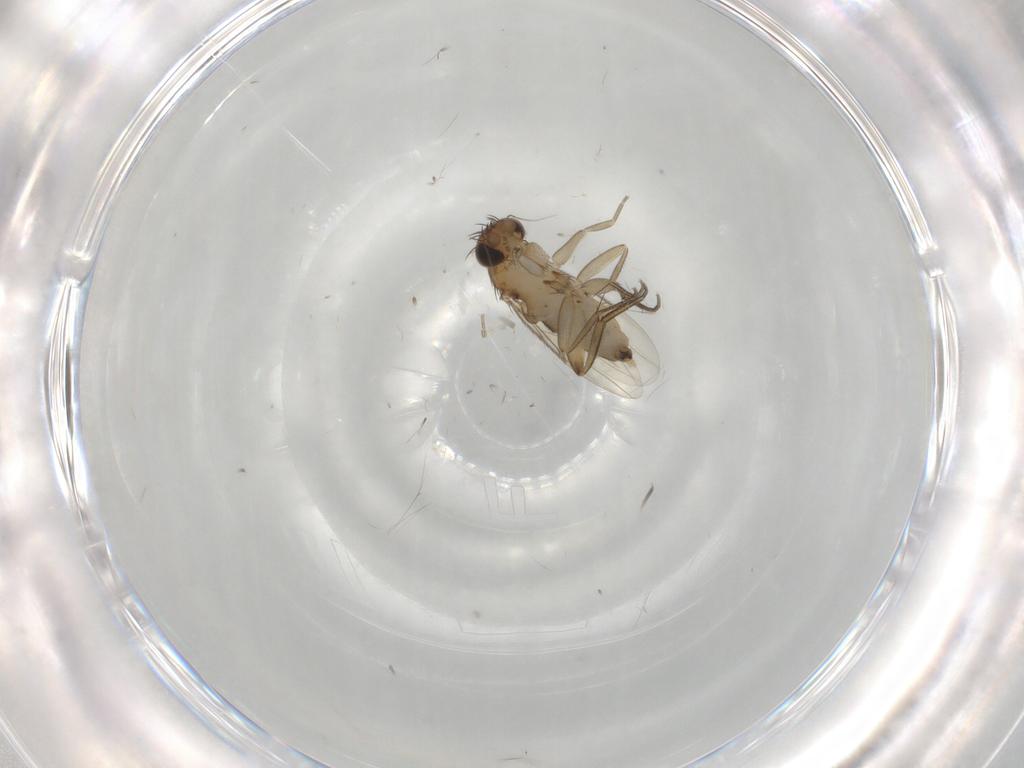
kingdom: Animalia
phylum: Arthropoda
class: Insecta
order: Diptera
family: Phoridae
